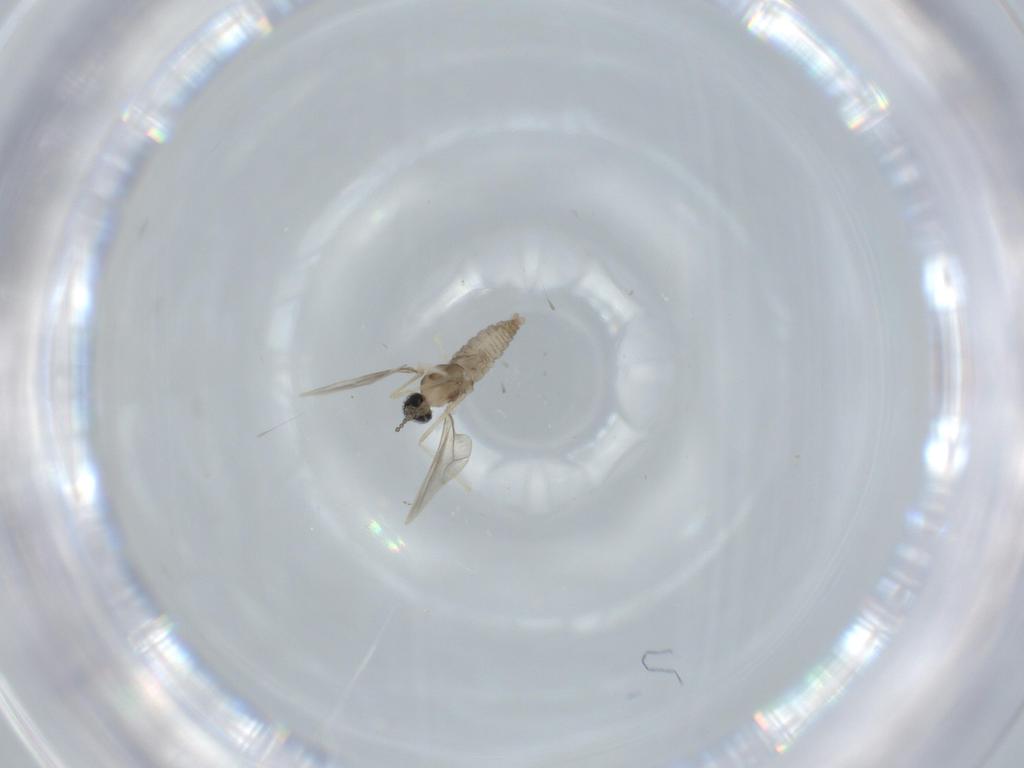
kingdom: Animalia
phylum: Arthropoda
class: Insecta
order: Diptera
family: Cecidomyiidae
